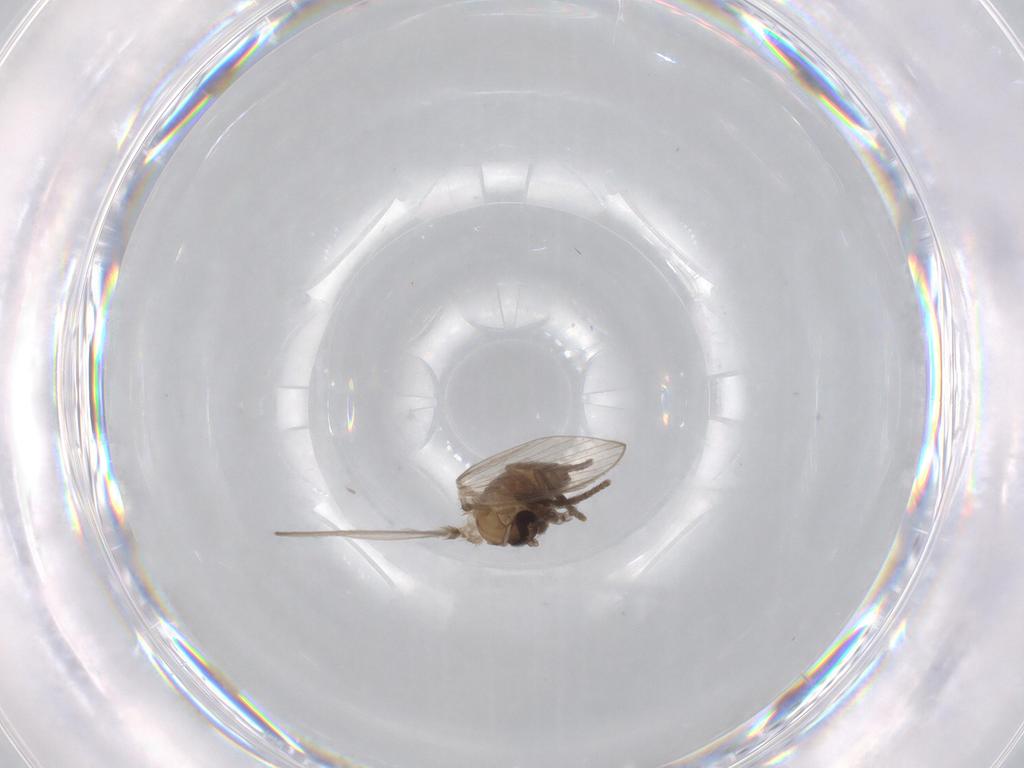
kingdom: Animalia
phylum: Arthropoda
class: Insecta
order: Diptera
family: Psychodidae
